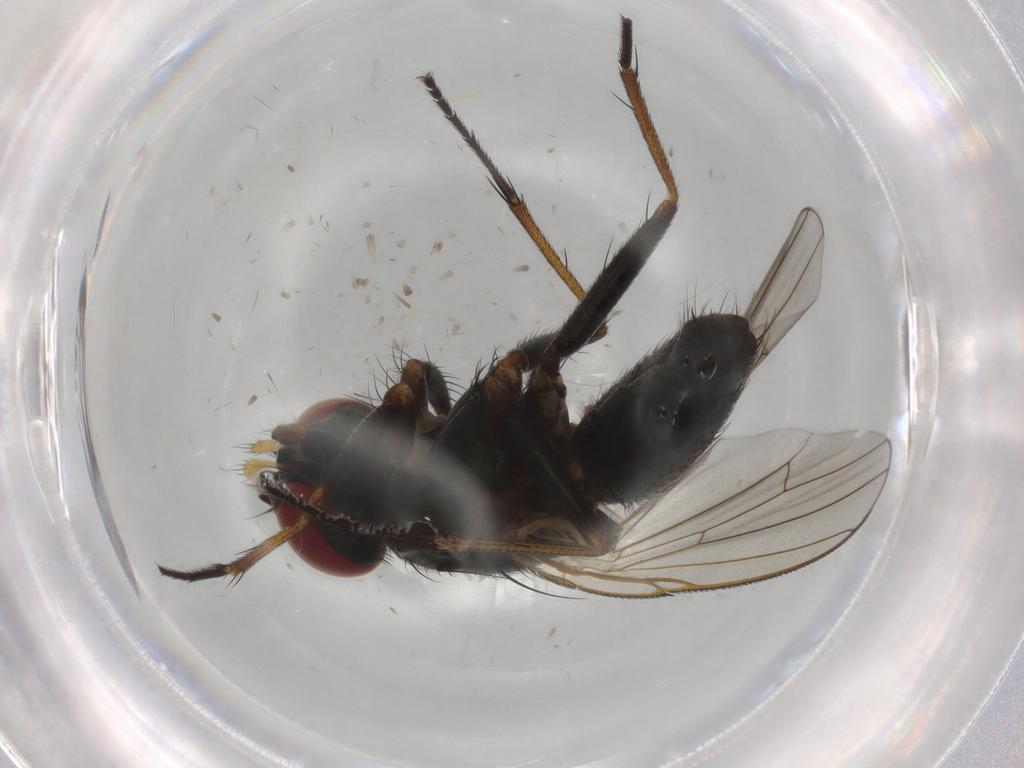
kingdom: Animalia
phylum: Arthropoda
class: Insecta
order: Diptera
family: Muscidae
